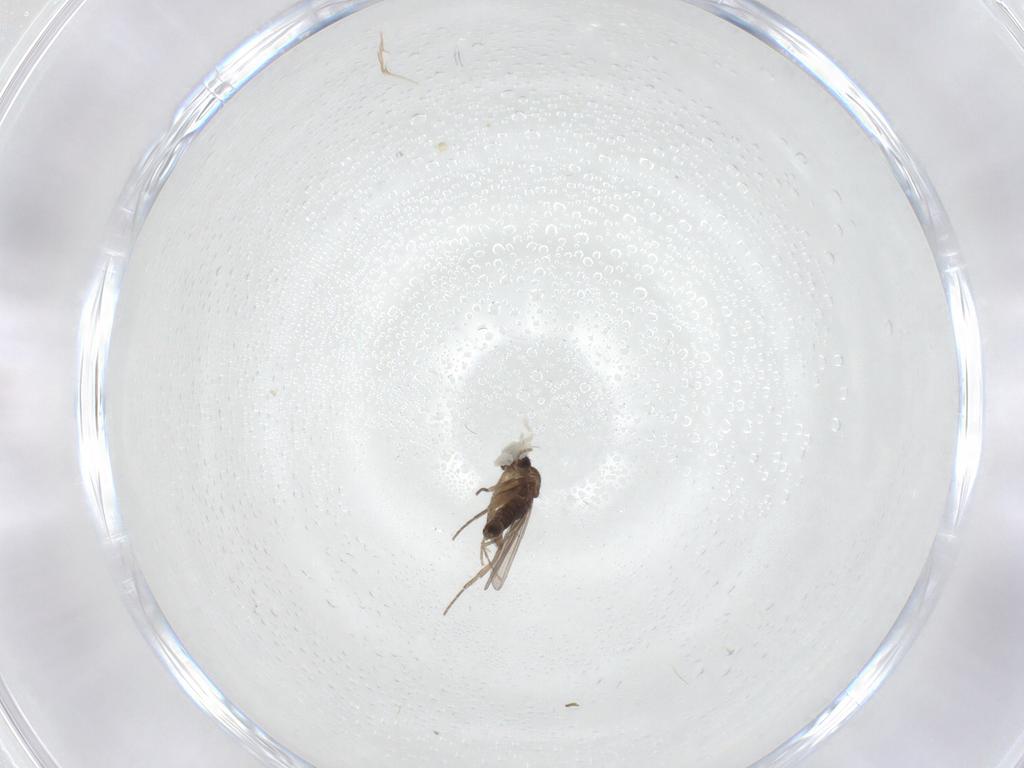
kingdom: Animalia
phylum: Arthropoda
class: Insecta
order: Diptera
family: Phoridae
